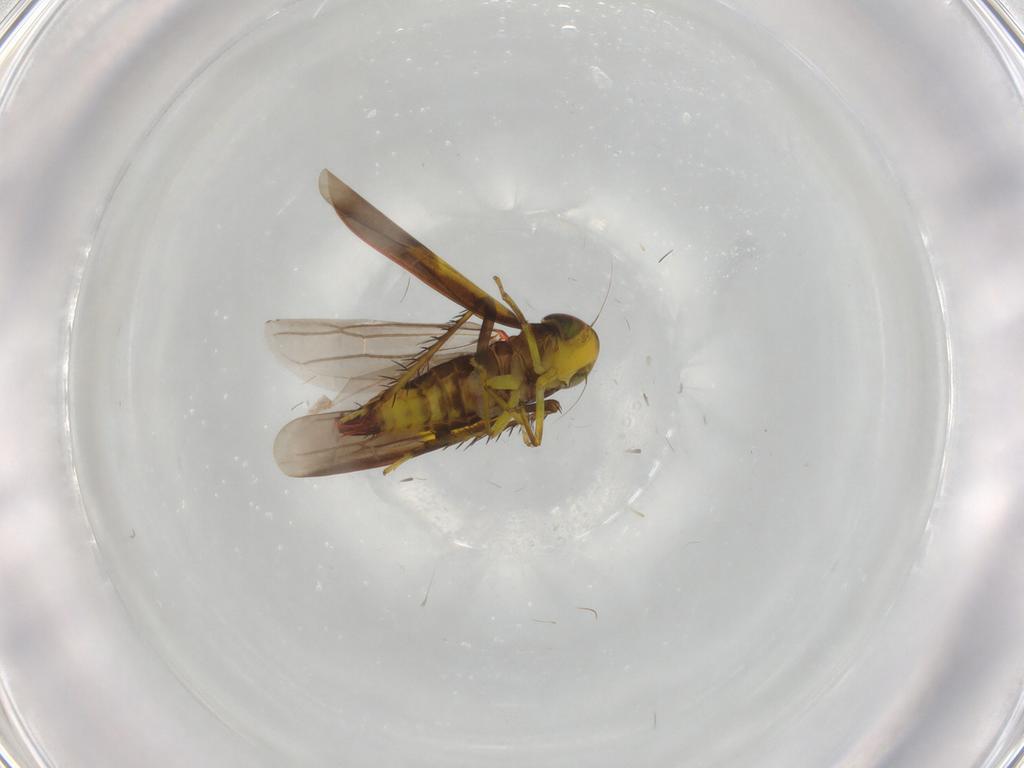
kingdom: Animalia
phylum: Arthropoda
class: Insecta
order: Hemiptera
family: Cicadellidae
